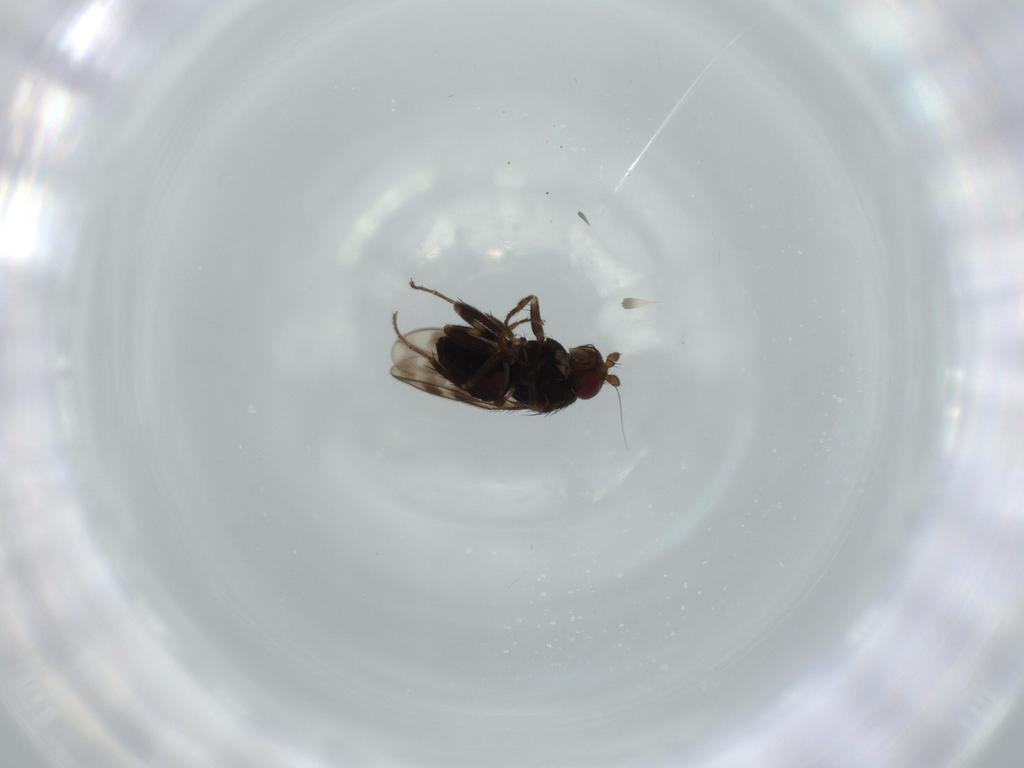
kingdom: Animalia
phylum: Arthropoda
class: Insecta
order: Diptera
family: Sphaeroceridae
